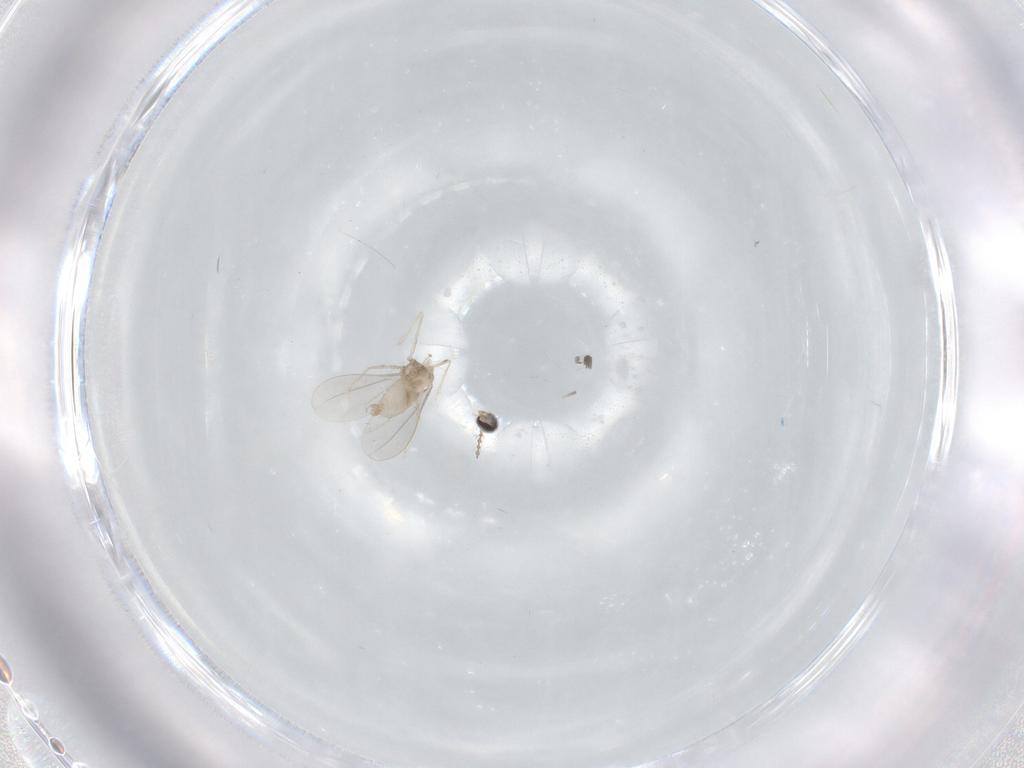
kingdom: Animalia
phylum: Arthropoda
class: Insecta
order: Diptera
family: Cecidomyiidae
